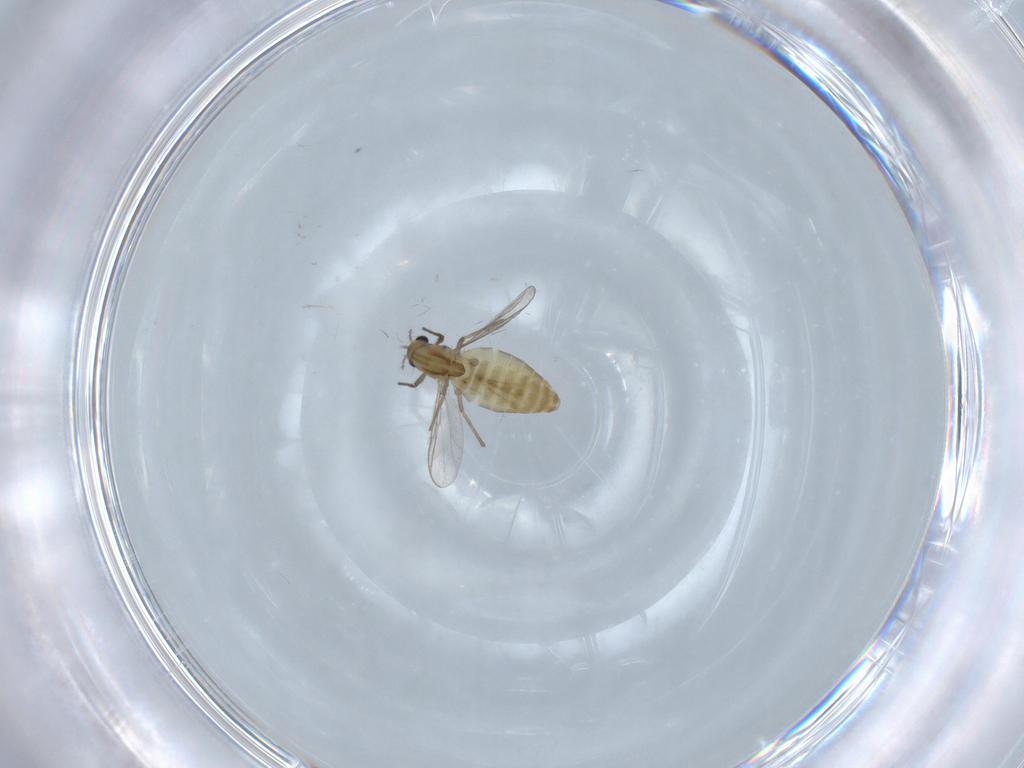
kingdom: Animalia
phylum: Arthropoda
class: Insecta
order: Diptera
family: Chironomidae
